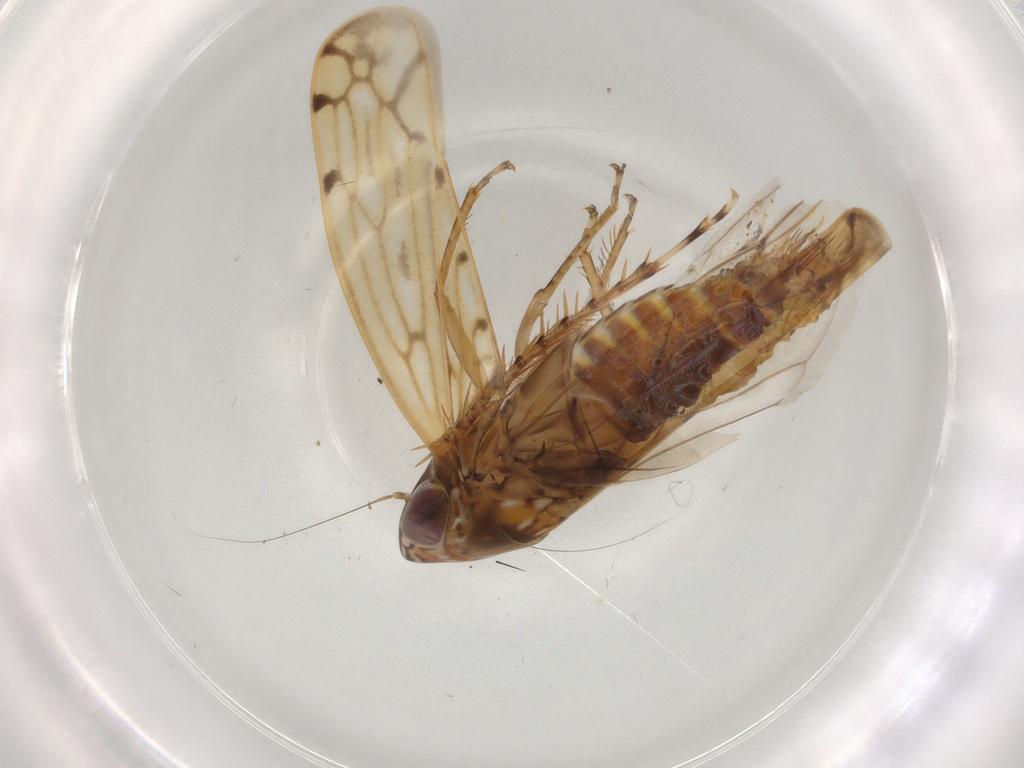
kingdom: Animalia
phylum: Arthropoda
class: Insecta
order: Hemiptera
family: Cicadellidae
